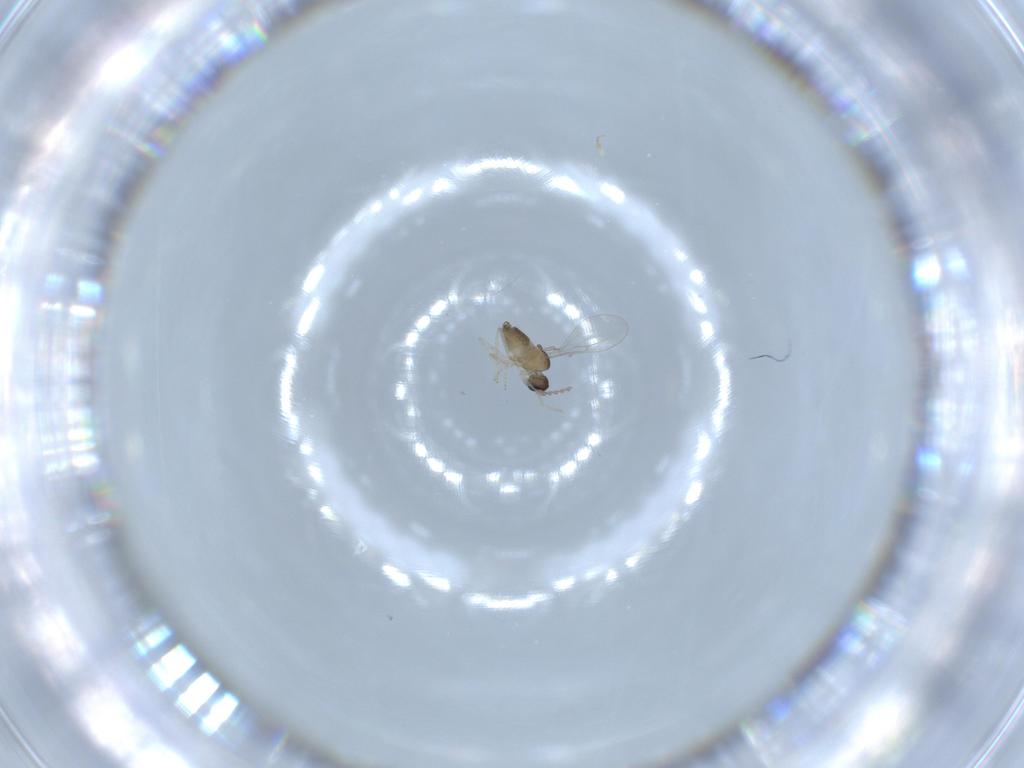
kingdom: Animalia
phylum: Arthropoda
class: Insecta
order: Diptera
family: Cecidomyiidae
